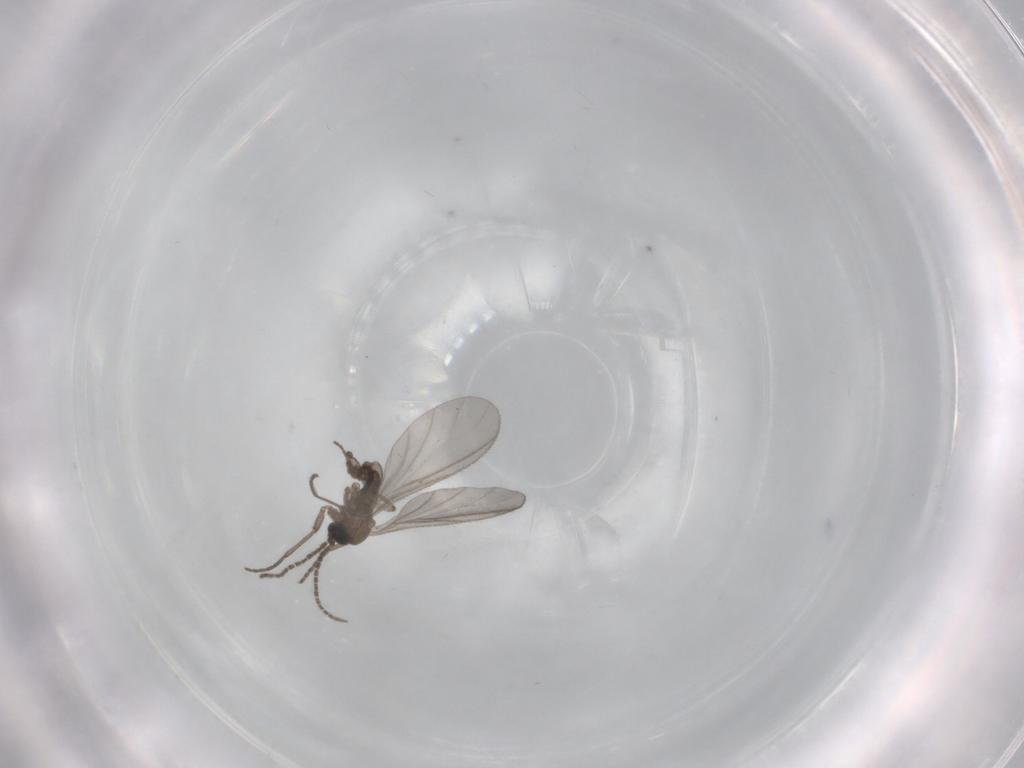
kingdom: Animalia
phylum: Arthropoda
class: Insecta
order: Diptera
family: Sciaridae
